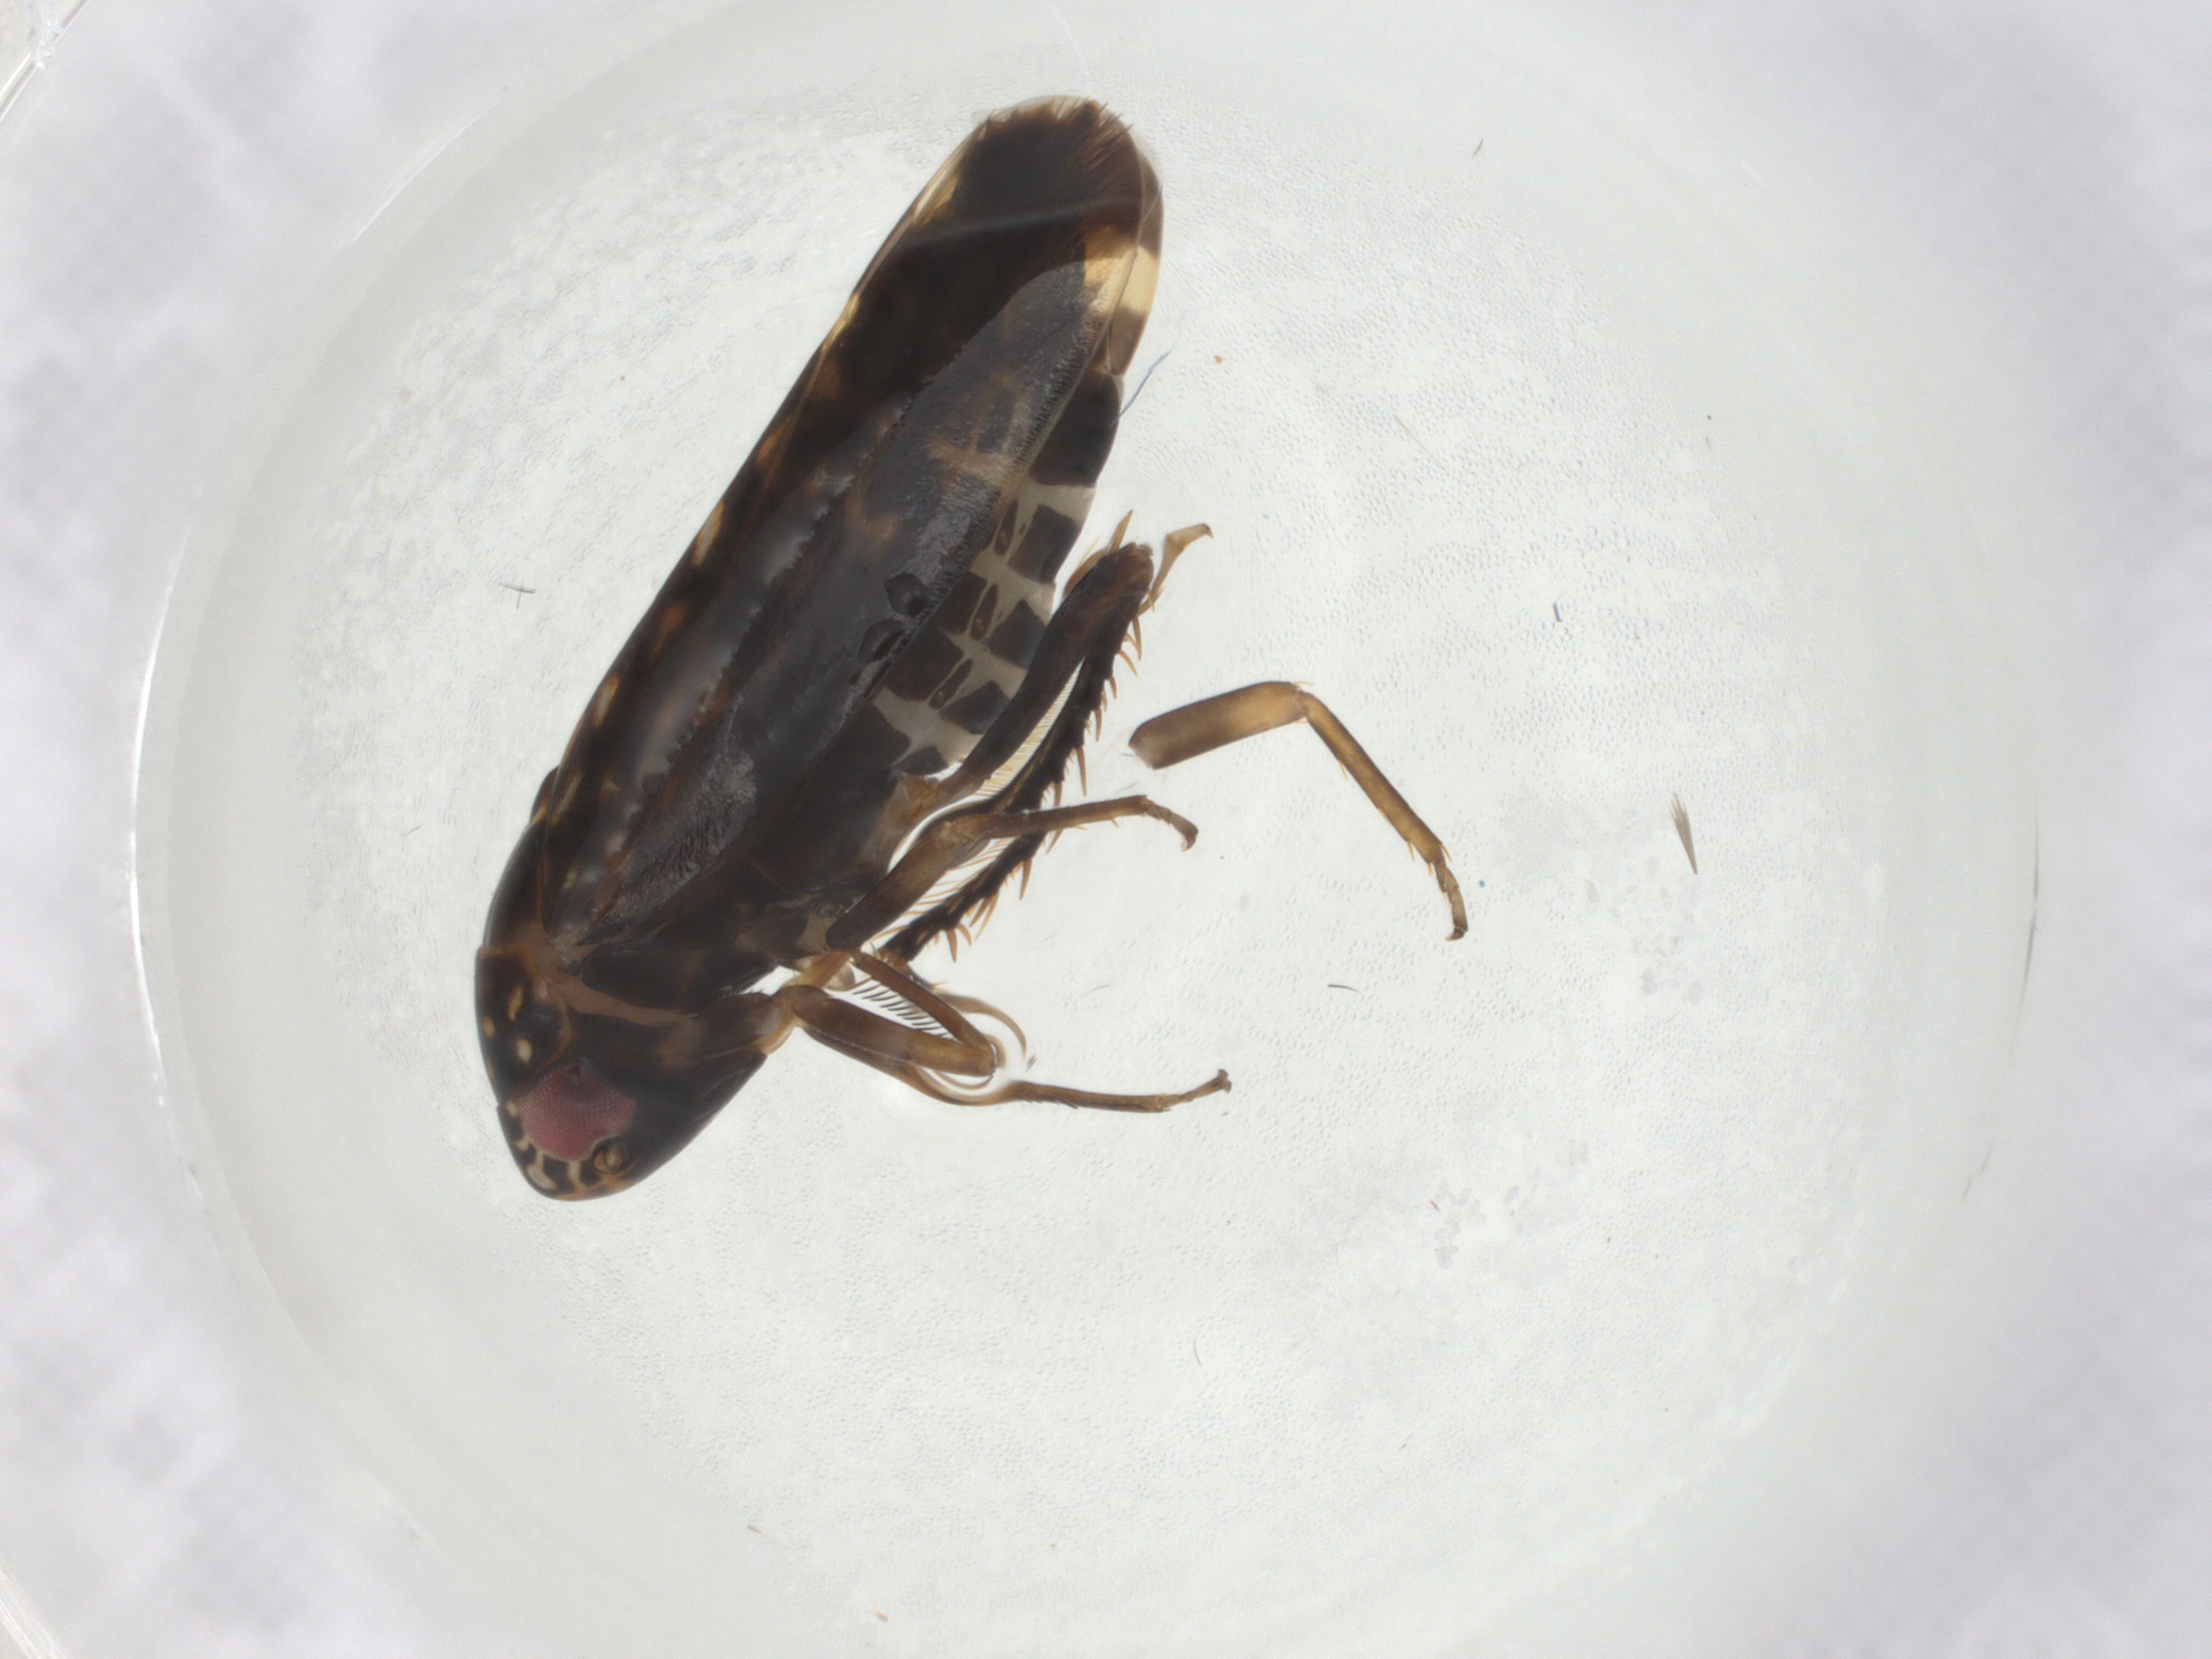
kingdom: Animalia
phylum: Arthropoda
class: Insecta
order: Hemiptera
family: Cicadellidae
